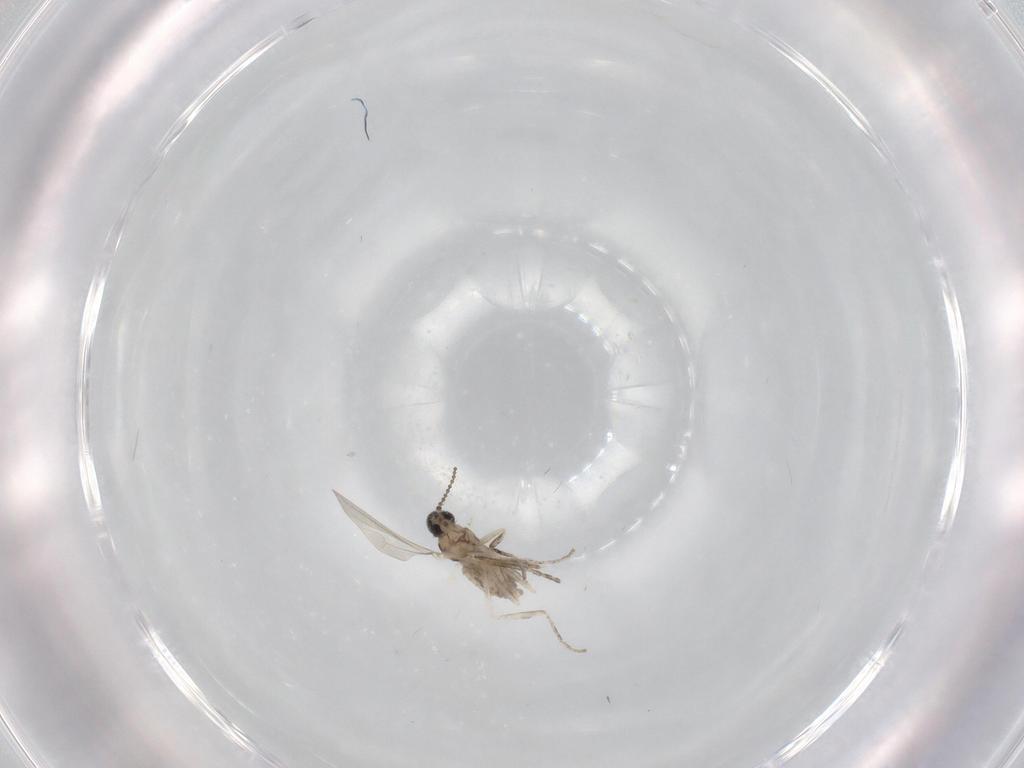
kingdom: Animalia
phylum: Arthropoda
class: Insecta
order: Diptera
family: Cecidomyiidae
